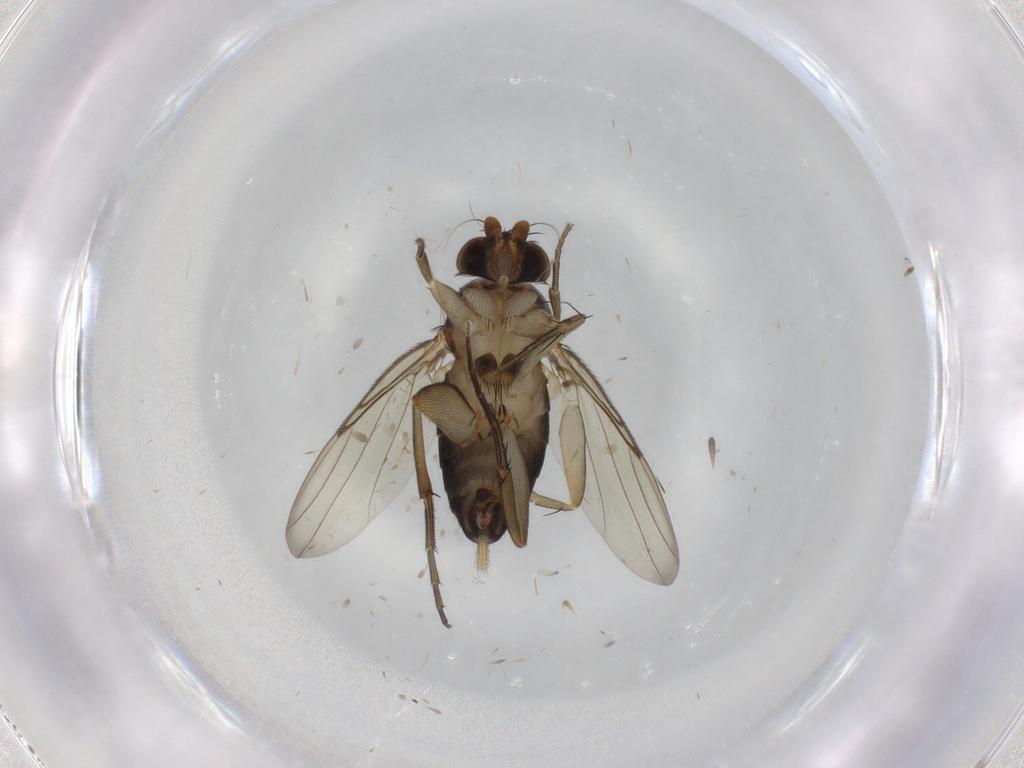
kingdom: Animalia
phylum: Arthropoda
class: Insecta
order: Diptera
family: Phoridae
